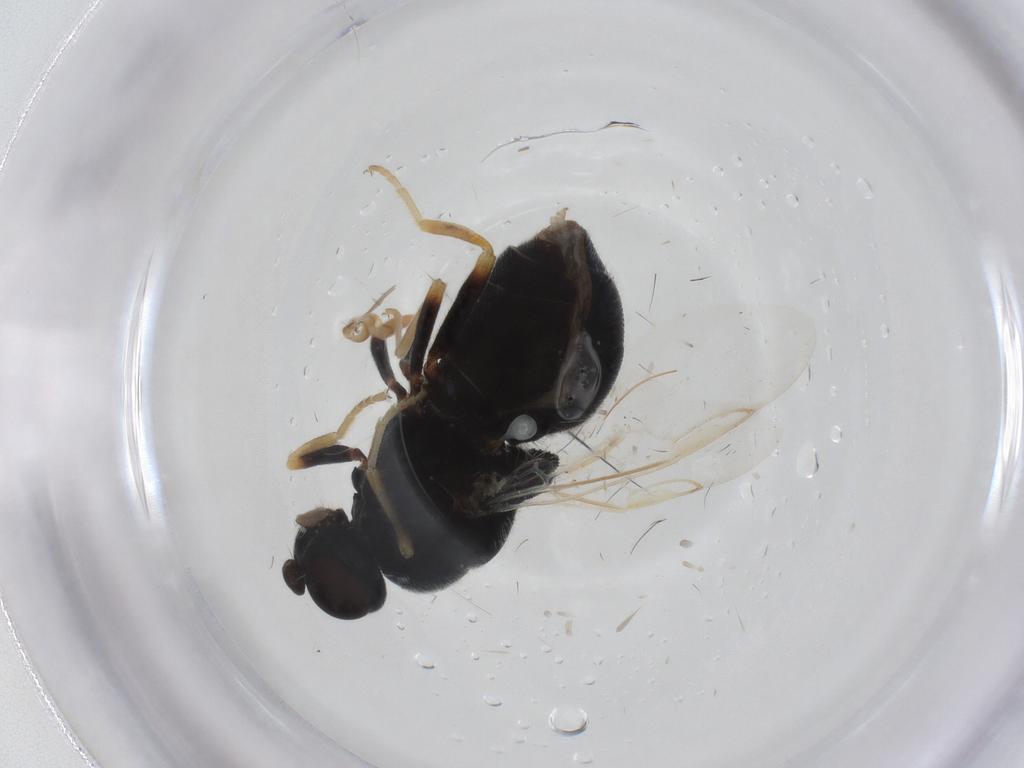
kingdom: Animalia
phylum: Arthropoda
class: Insecta
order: Diptera
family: Stratiomyidae
